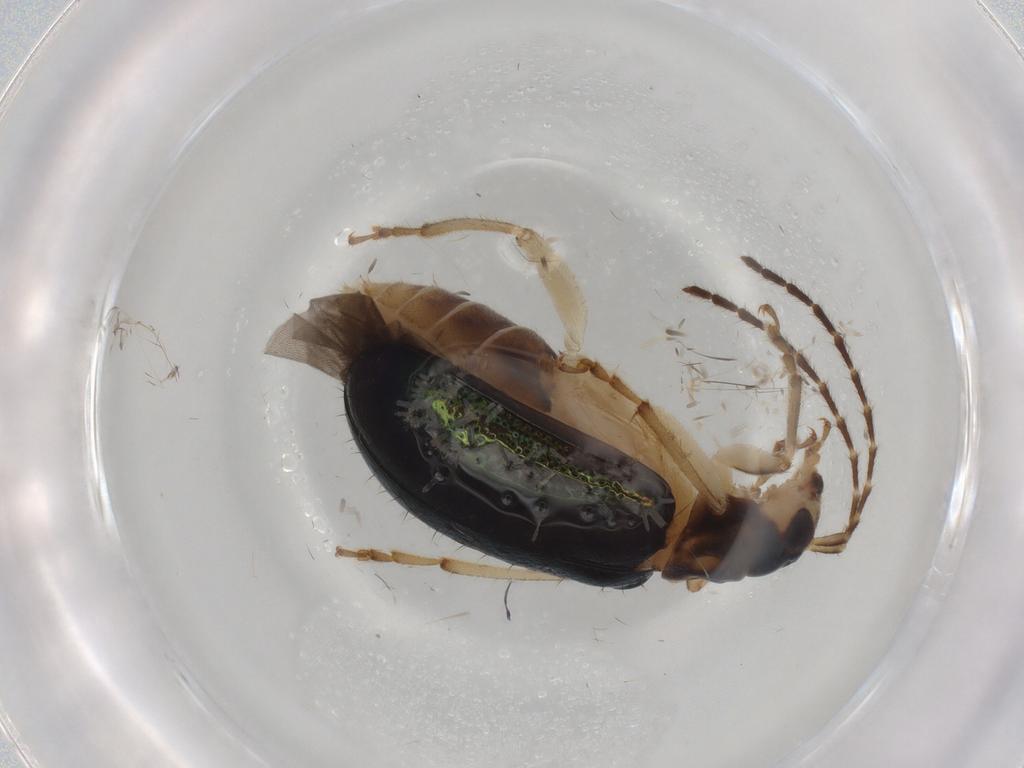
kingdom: Animalia
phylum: Arthropoda
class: Insecta
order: Coleoptera
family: Chrysomelidae
